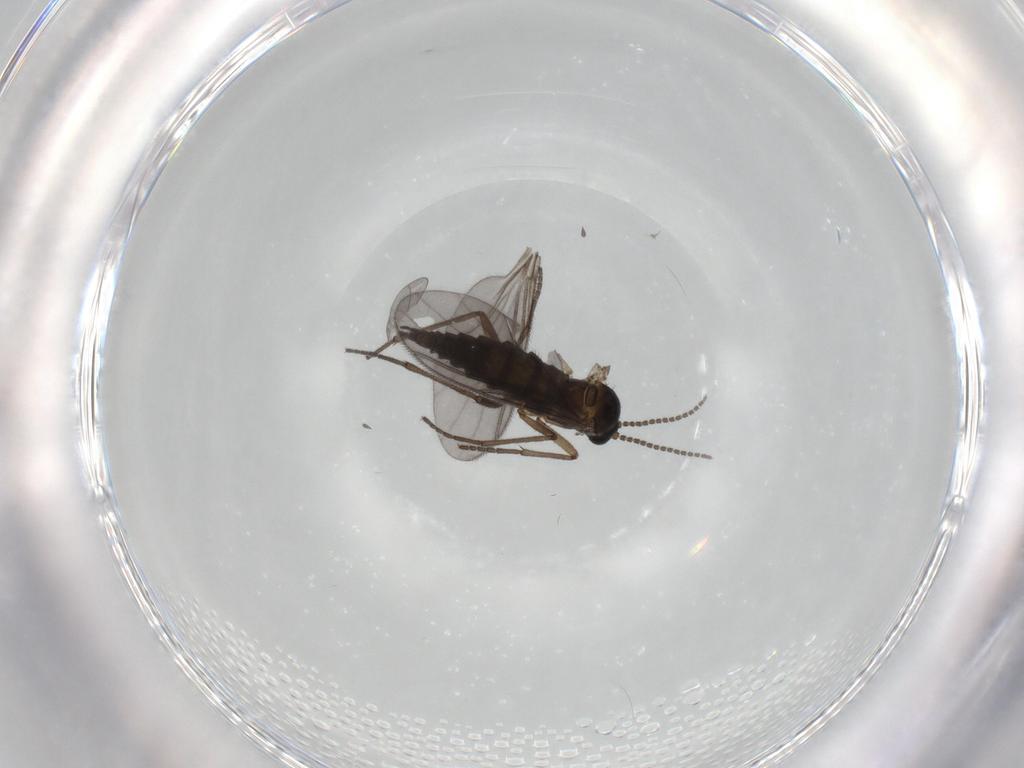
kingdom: Animalia
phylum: Arthropoda
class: Insecta
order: Diptera
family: Sciaridae
